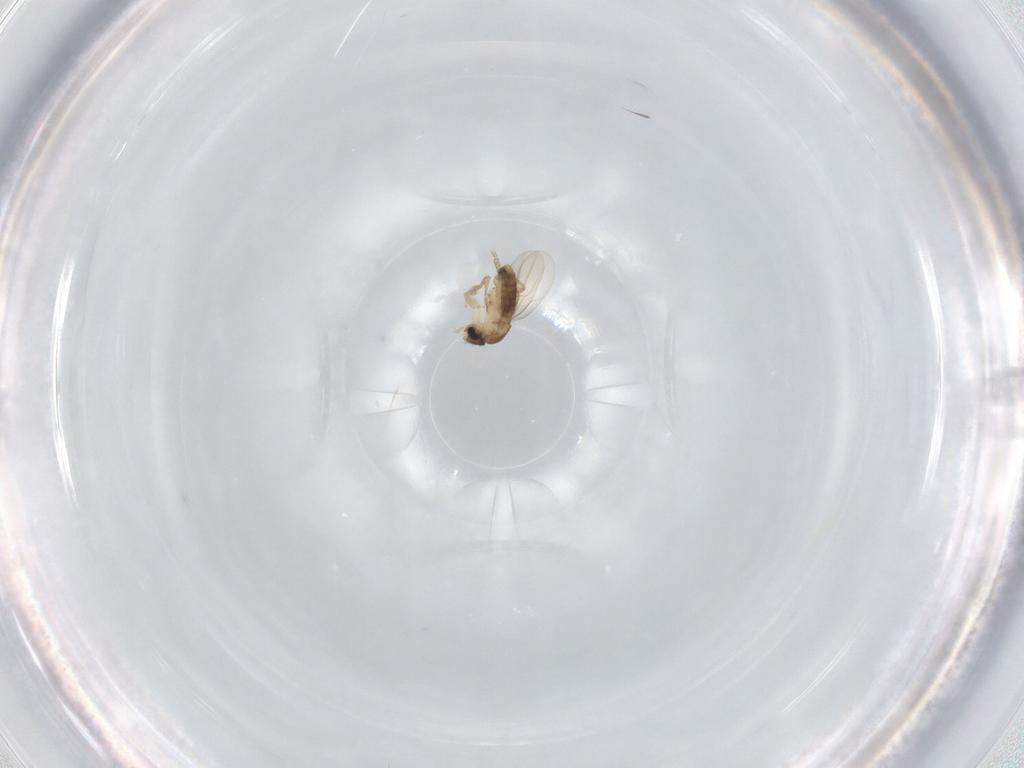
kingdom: Animalia
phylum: Arthropoda
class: Insecta
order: Diptera
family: Phoridae
